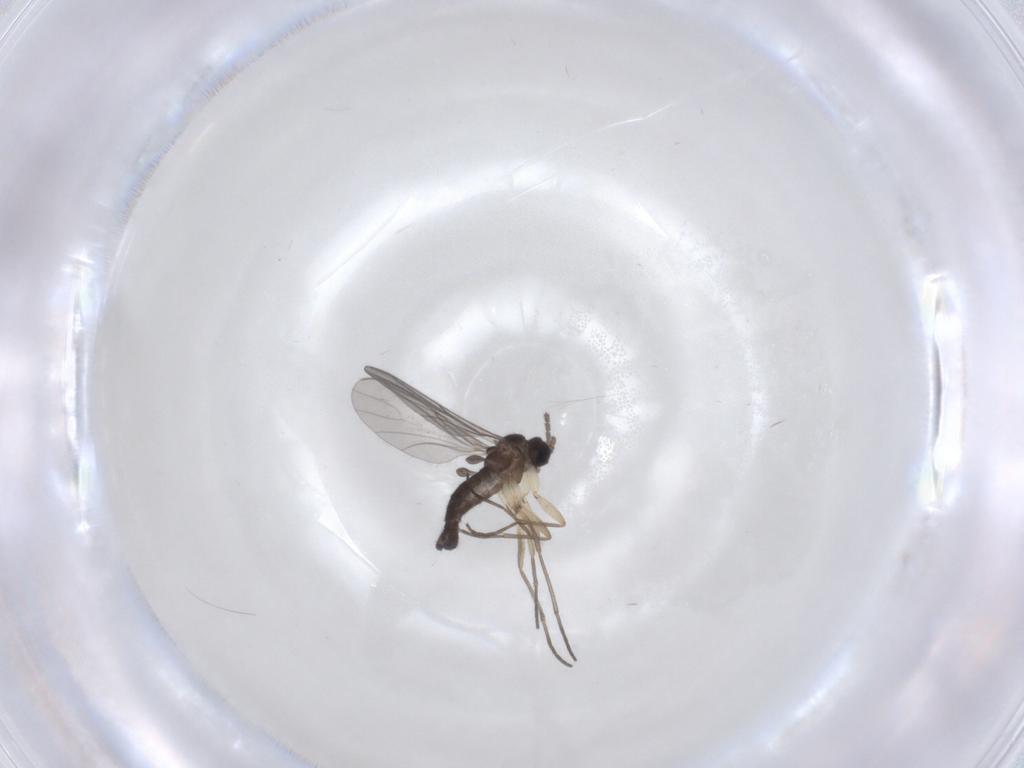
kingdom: Animalia
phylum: Arthropoda
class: Insecta
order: Diptera
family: Sciaridae
